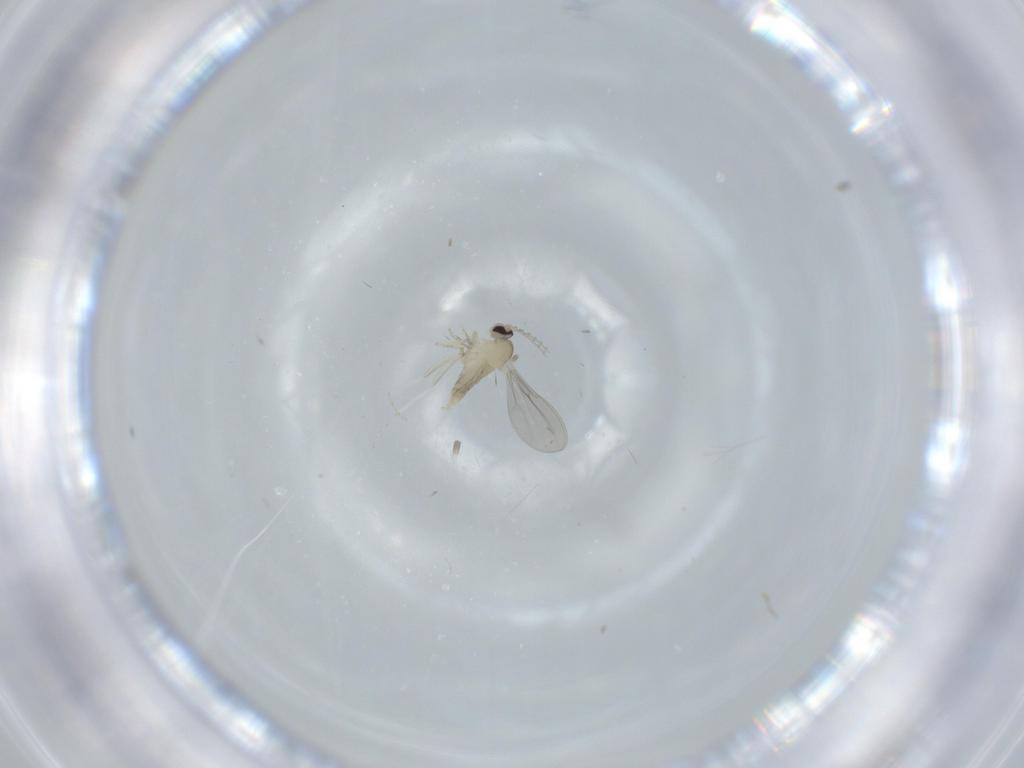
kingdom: Animalia
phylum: Arthropoda
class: Insecta
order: Diptera
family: Cecidomyiidae
